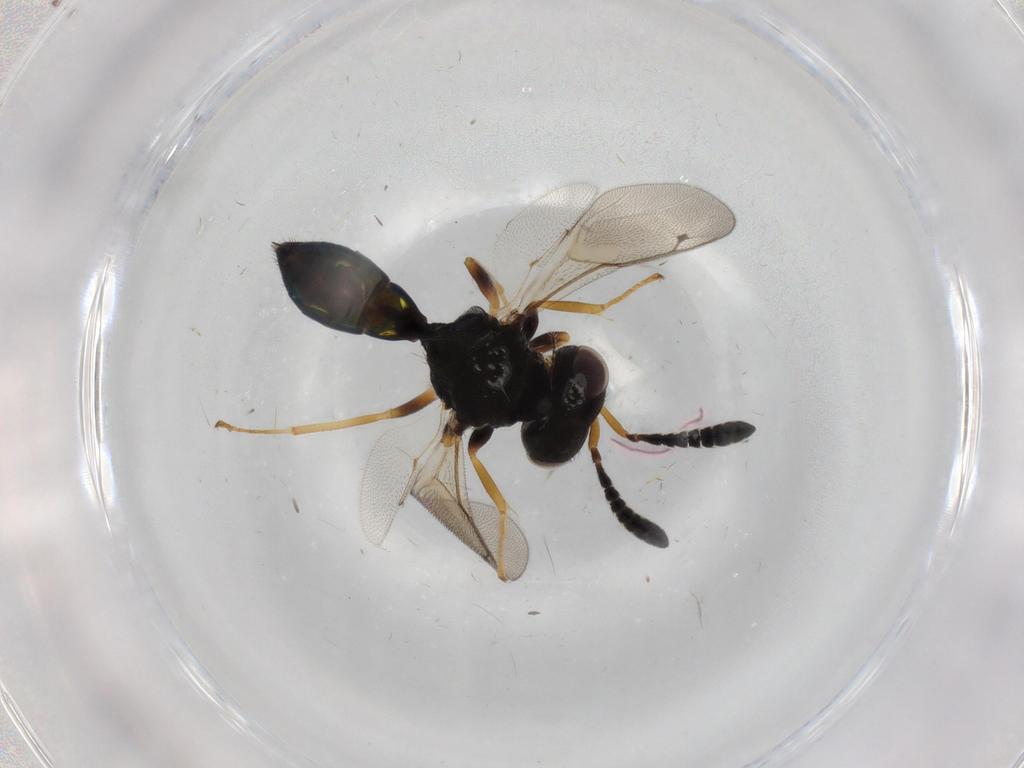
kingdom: Animalia
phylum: Arthropoda
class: Insecta
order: Hymenoptera
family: Pteromalidae
